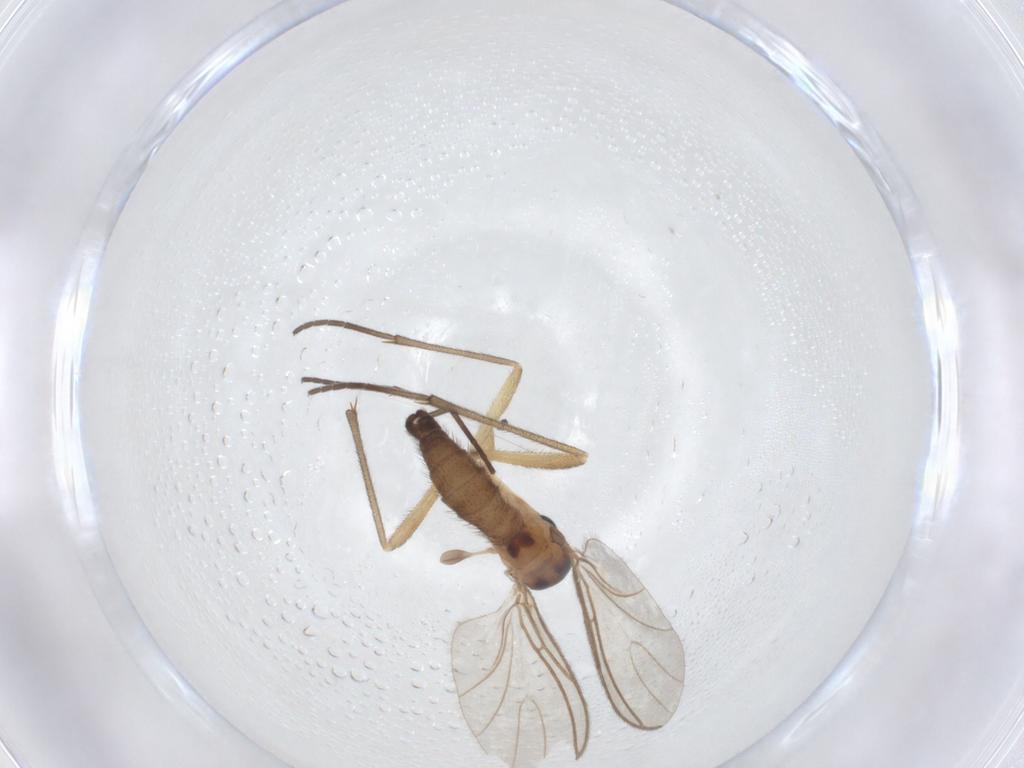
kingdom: Animalia
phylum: Arthropoda
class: Insecta
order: Diptera
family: Sciaridae
